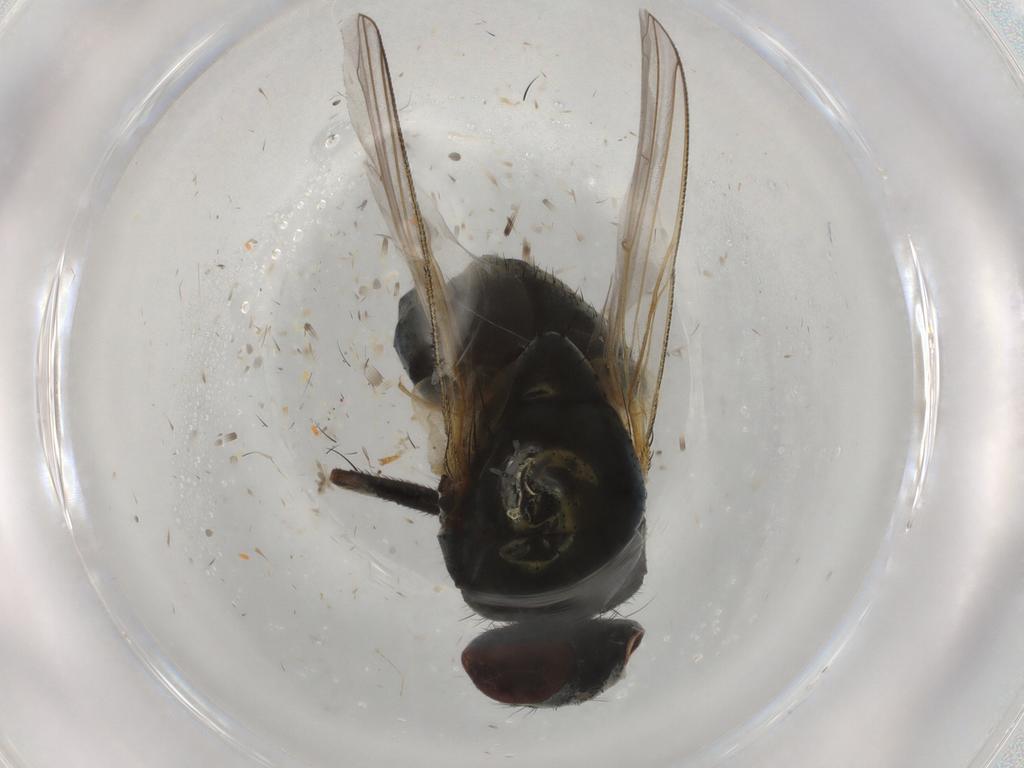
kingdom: Animalia
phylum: Arthropoda
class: Insecta
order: Diptera
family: Muscidae
